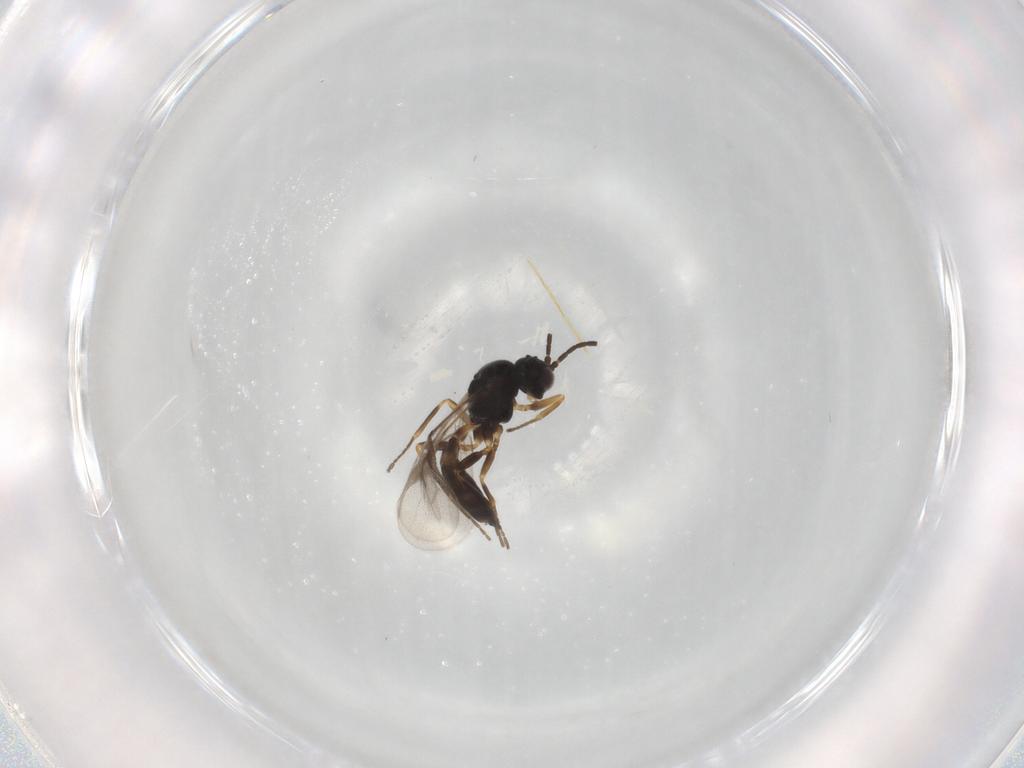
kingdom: Animalia
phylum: Arthropoda
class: Insecta
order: Hymenoptera
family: Braconidae
